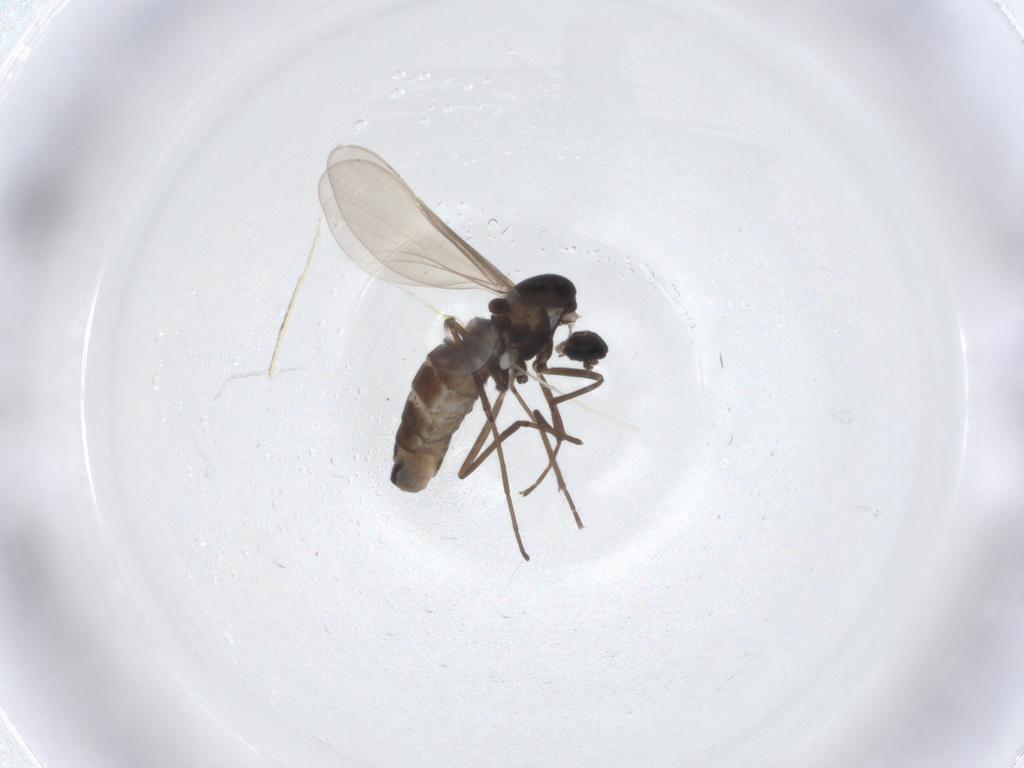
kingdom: Animalia
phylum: Arthropoda
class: Insecta
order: Diptera
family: Cecidomyiidae
